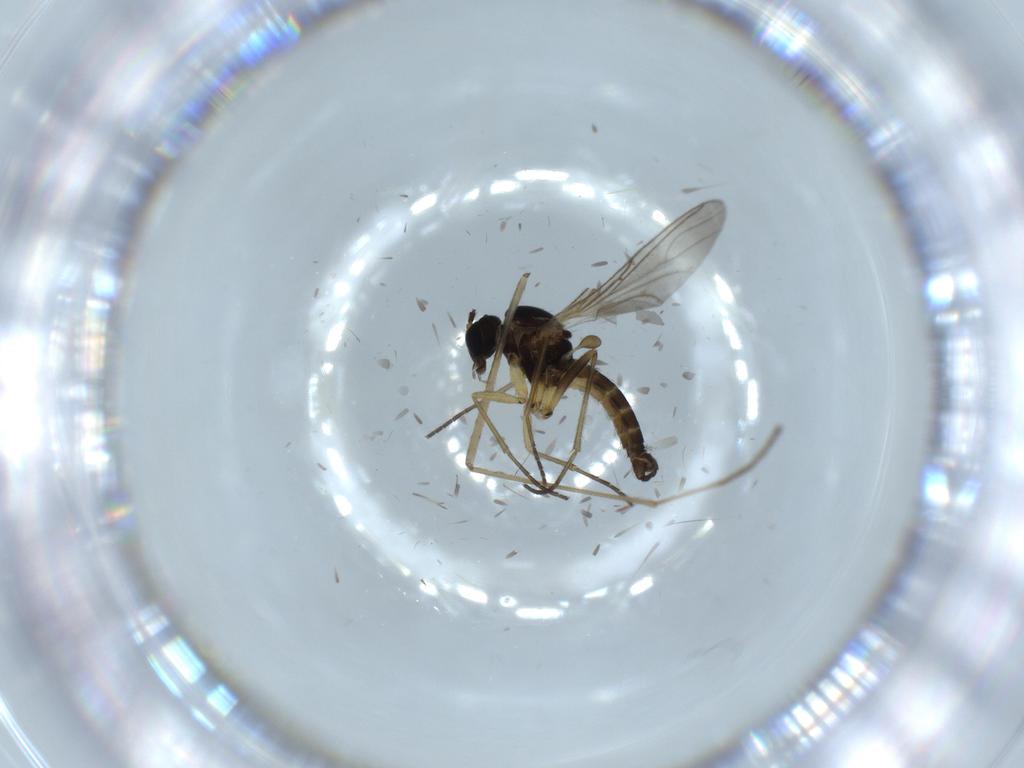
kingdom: Animalia
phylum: Arthropoda
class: Insecta
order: Diptera
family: Sciaridae
